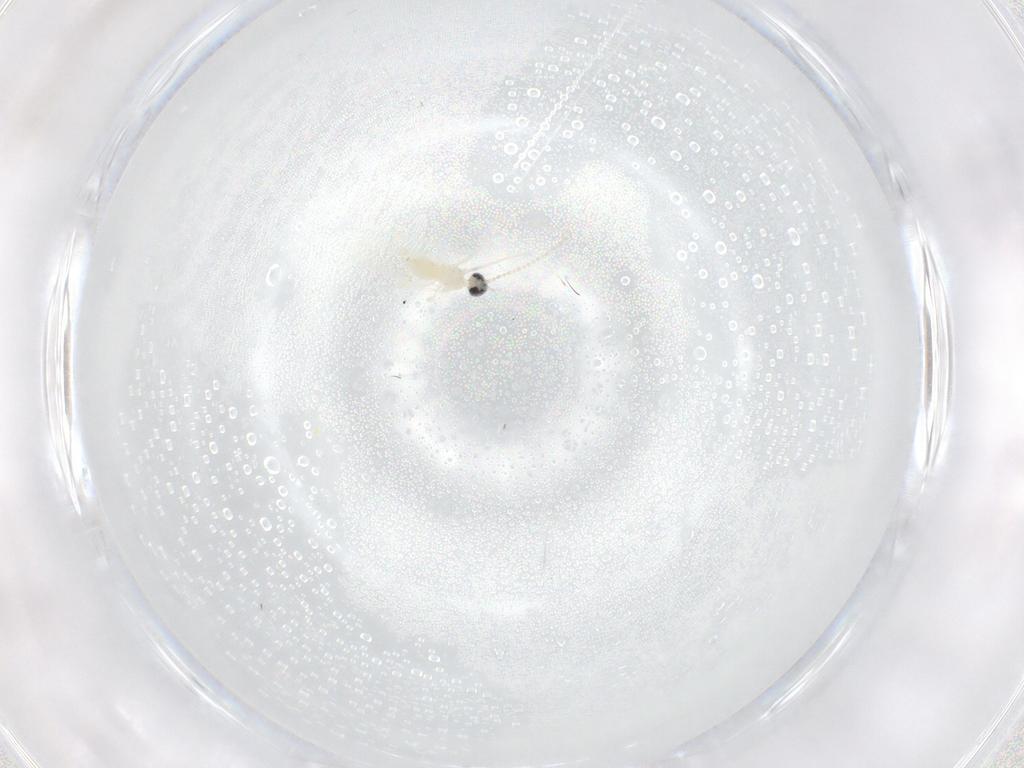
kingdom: Animalia
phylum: Arthropoda
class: Insecta
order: Diptera
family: Cecidomyiidae
